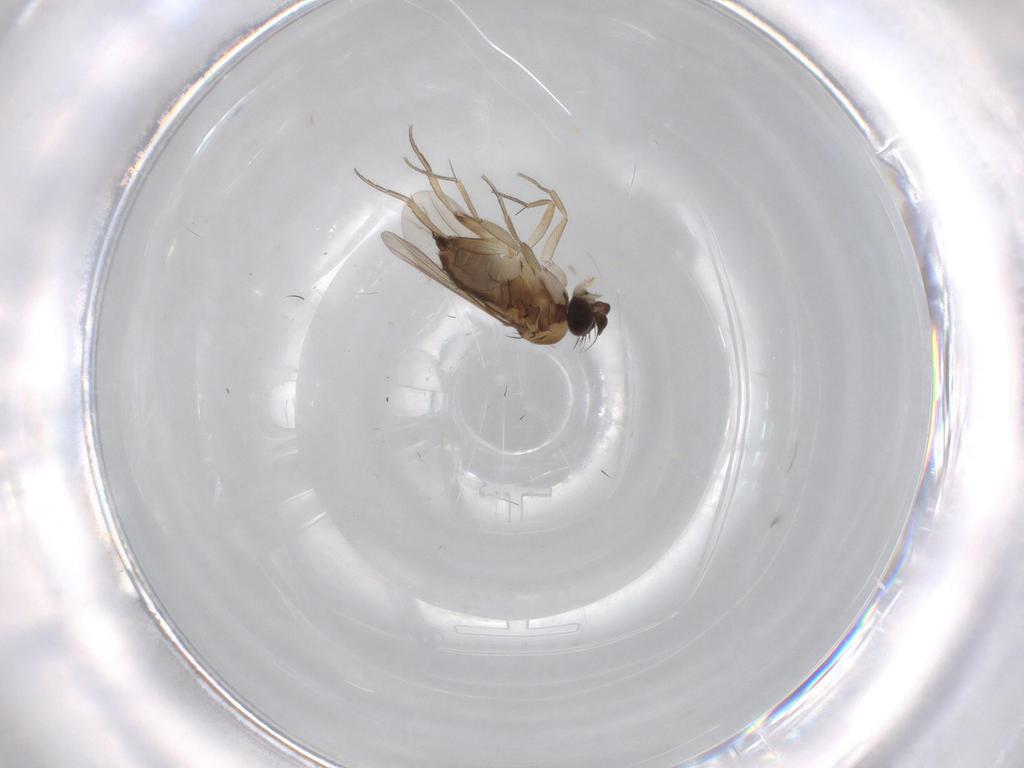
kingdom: Animalia
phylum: Arthropoda
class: Insecta
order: Diptera
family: Phoridae
